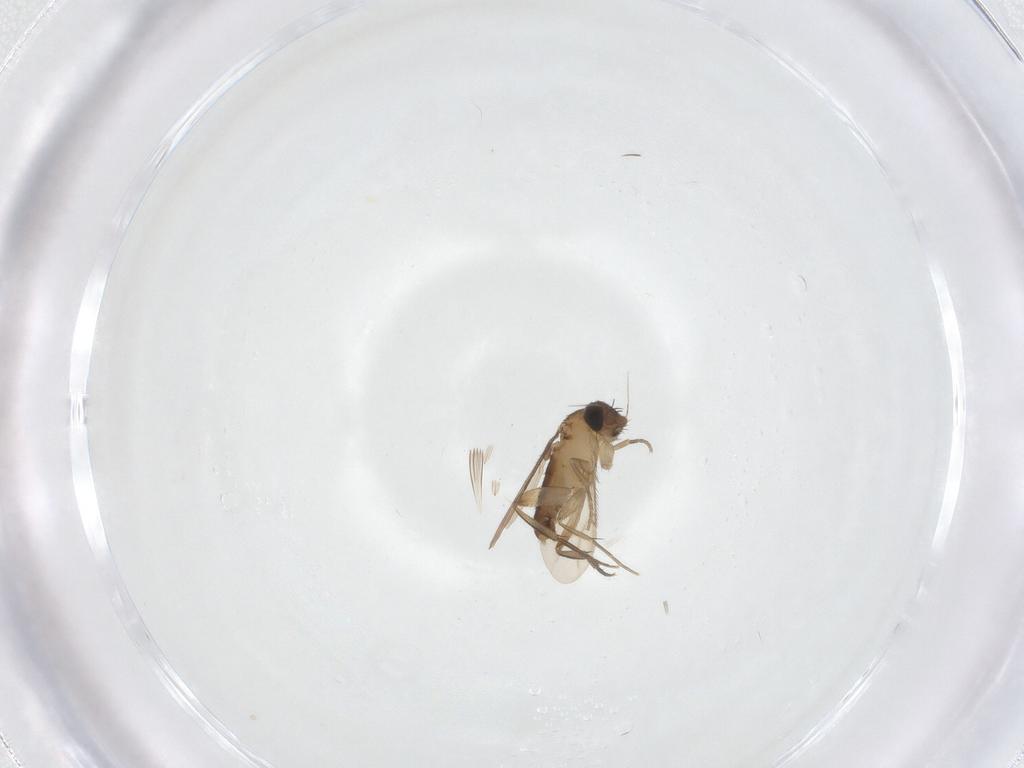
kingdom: Animalia
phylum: Arthropoda
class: Insecta
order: Diptera
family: Phoridae
